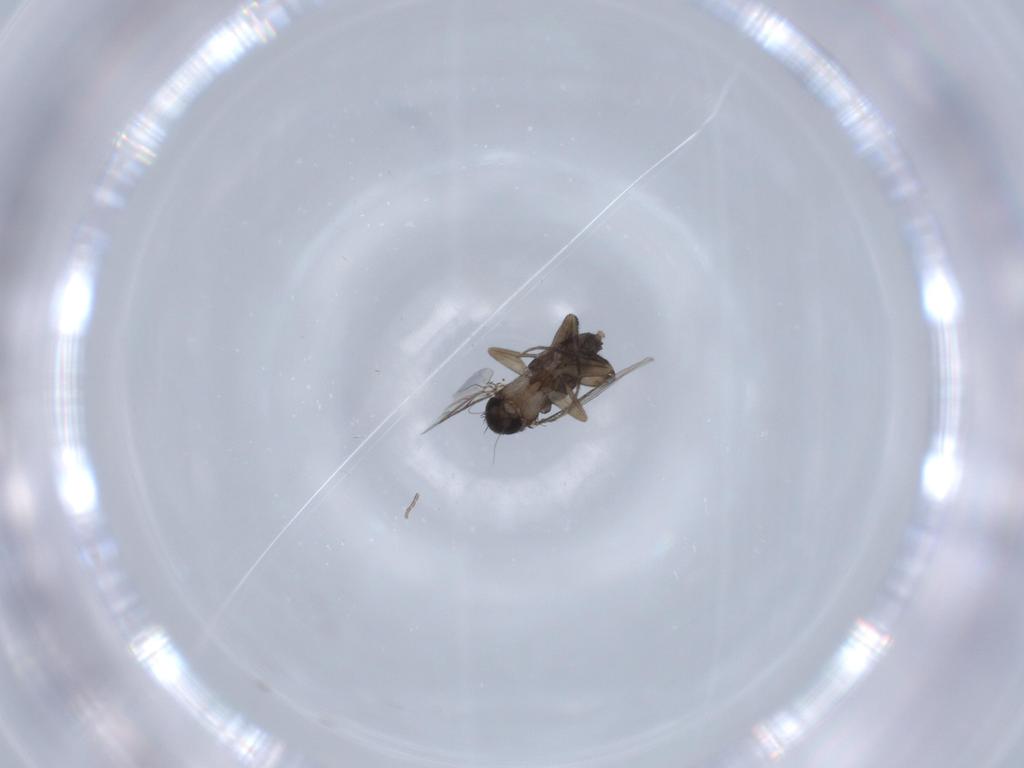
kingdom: Animalia
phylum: Arthropoda
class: Insecta
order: Diptera
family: Phoridae
